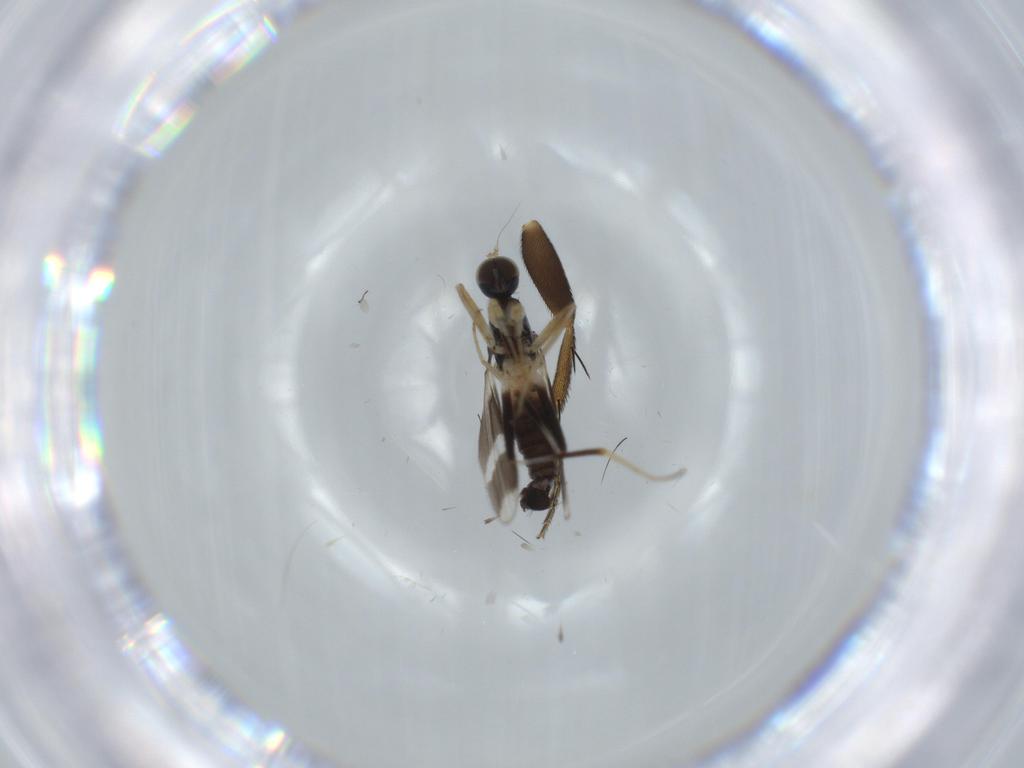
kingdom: Animalia
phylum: Arthropoda
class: Insecta
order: Diptera
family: Hybotidae
